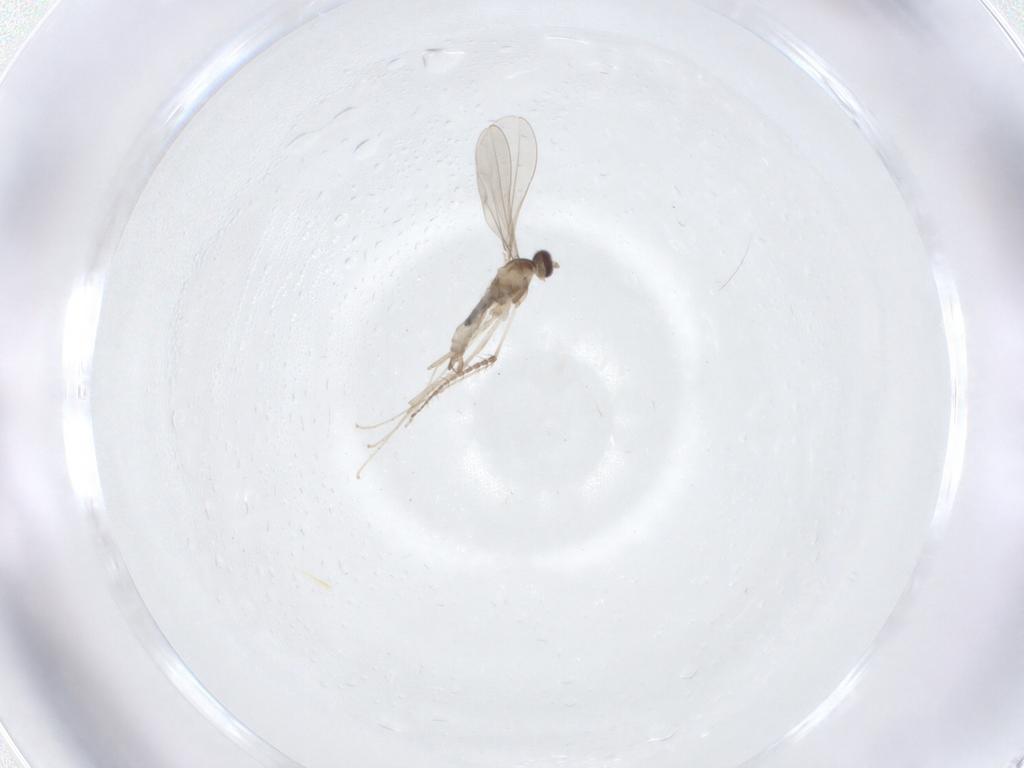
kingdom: Animalia
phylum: Arthropoda
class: Insecta
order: Diptera
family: Cecidomyiidae
